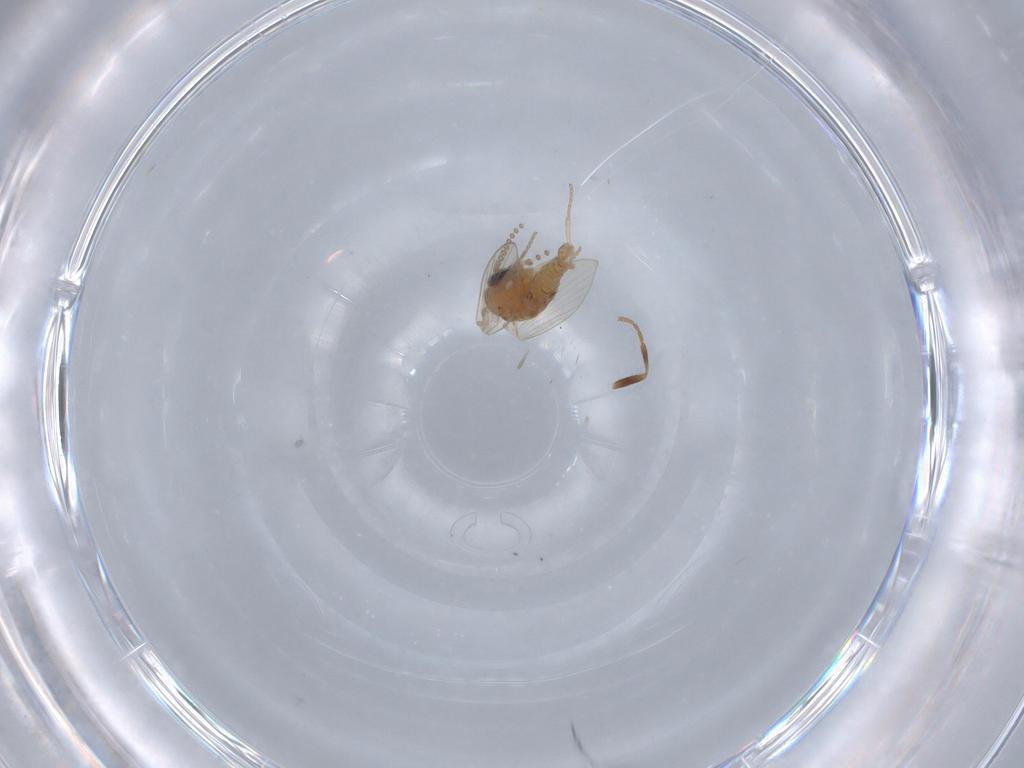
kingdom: Animalia
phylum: Arthropoda
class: Insecta
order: Diptera
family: Psychodidae
